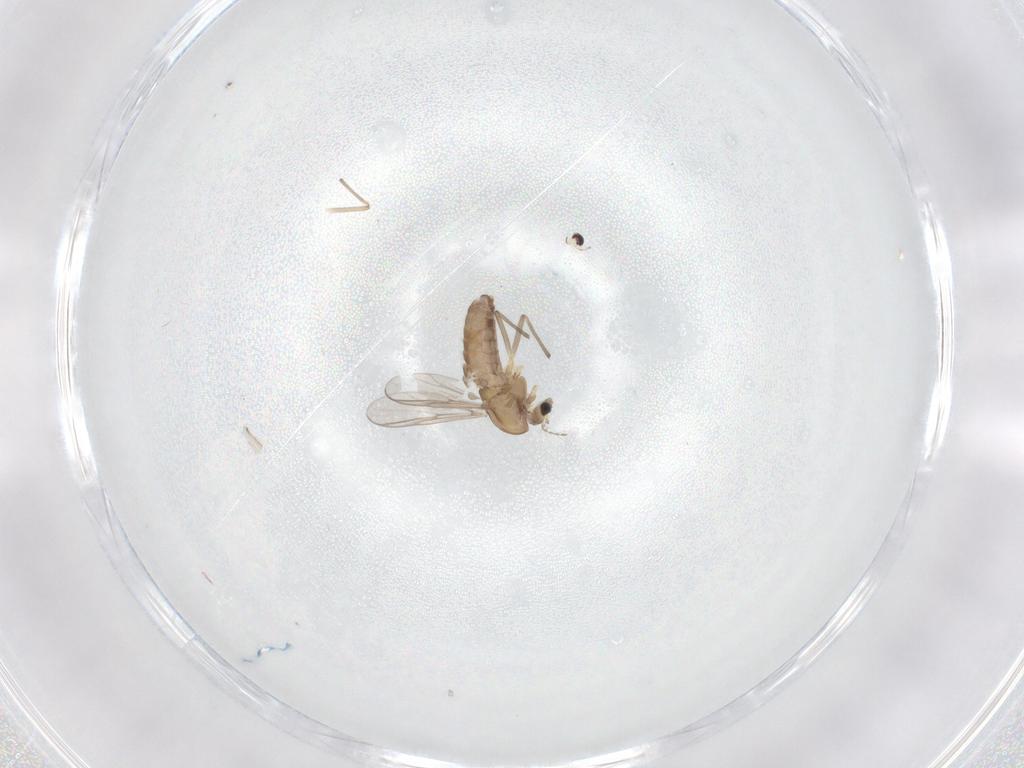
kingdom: Animalia
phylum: Arthropoda
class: Insecta
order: Diptera
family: Chironomidae
